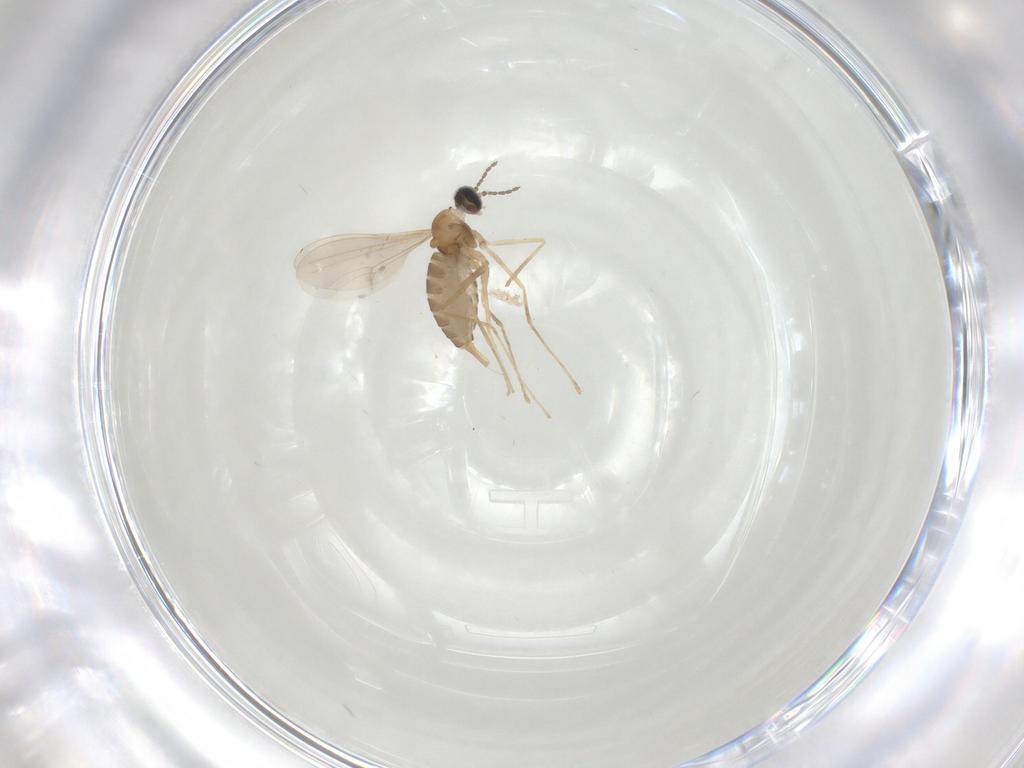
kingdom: Animalia
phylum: Arthropoda
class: Insecta
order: Diptera
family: Cecidomyiidae
